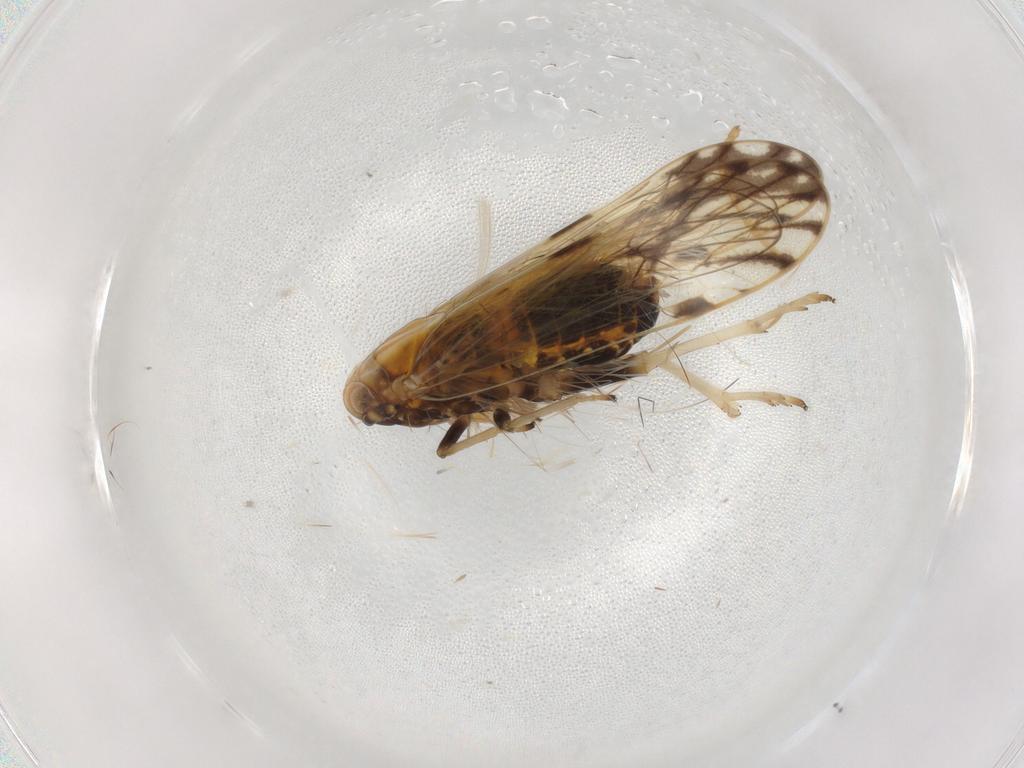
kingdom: Animalia
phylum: Arthropoda
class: Insecta
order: Hemiptera
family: Delphacidae
